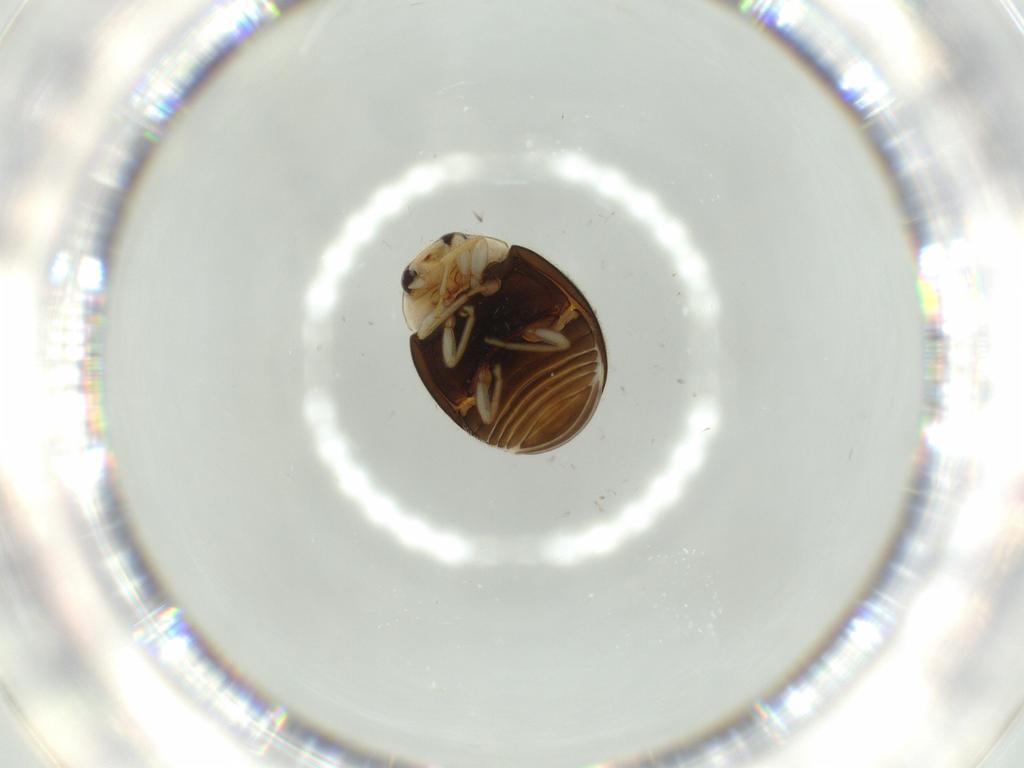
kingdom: Animalia
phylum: Arthropoda
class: Insecta
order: Coleoptera
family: Coccinellidae
